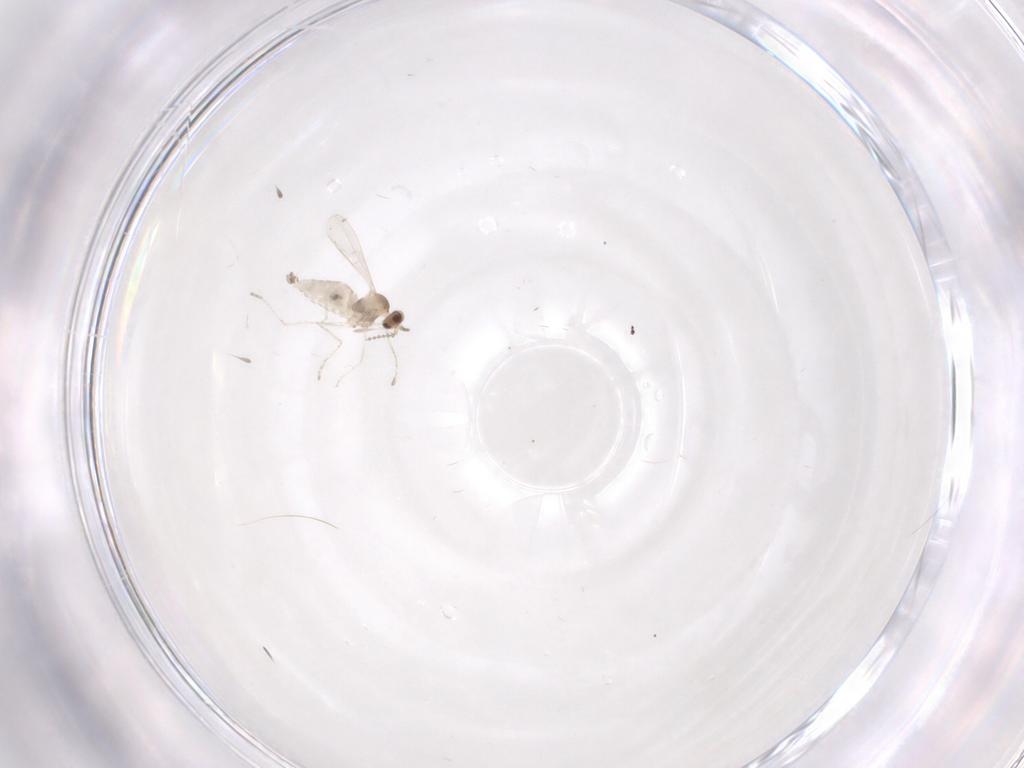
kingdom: Animalia
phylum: Arthropoda
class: Insecta
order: Diptera
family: Cecidomyiidae
